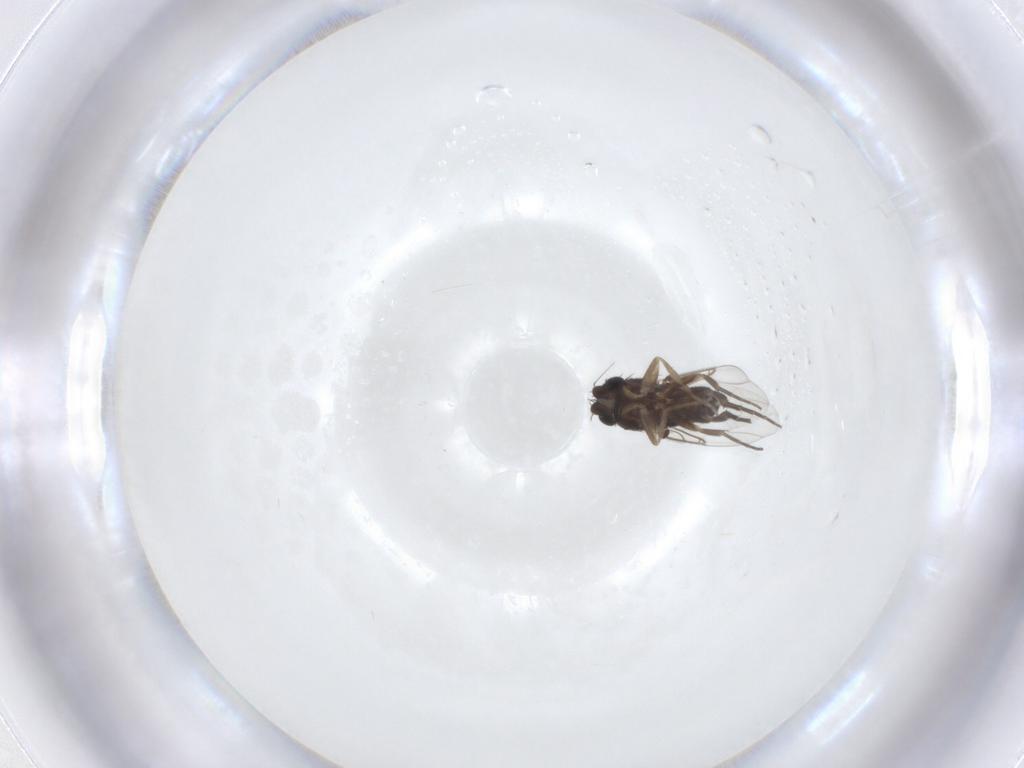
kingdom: Animalia
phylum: Arthropoda
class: Insecta
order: Diptera
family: Phoridae
